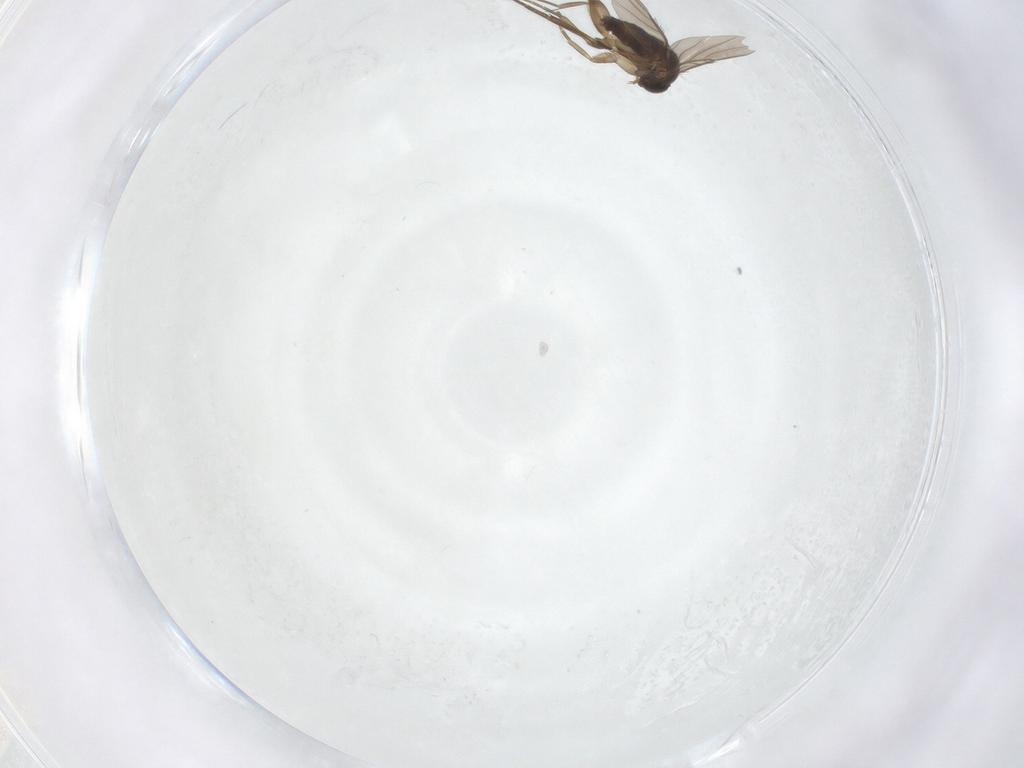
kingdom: Animalia
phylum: Arthropoda
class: Insecta
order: Diptera
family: Phoridae
